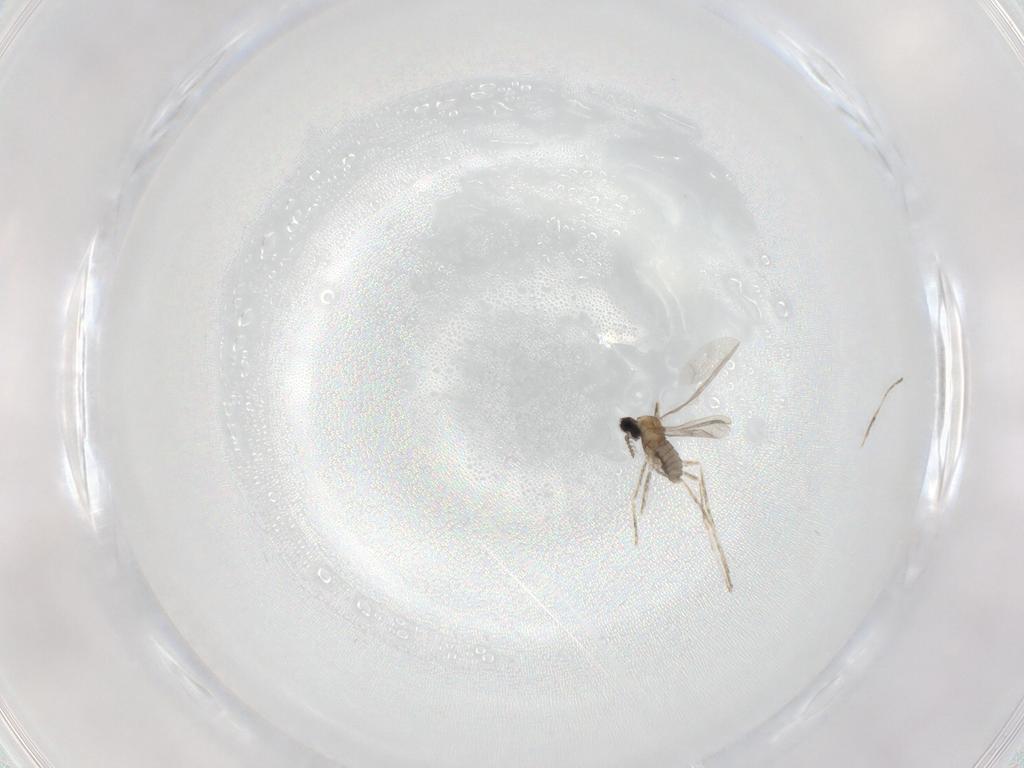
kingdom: Animalia
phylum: Arthropoda
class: Insecta
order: Diptera
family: Cecidomyiidae
